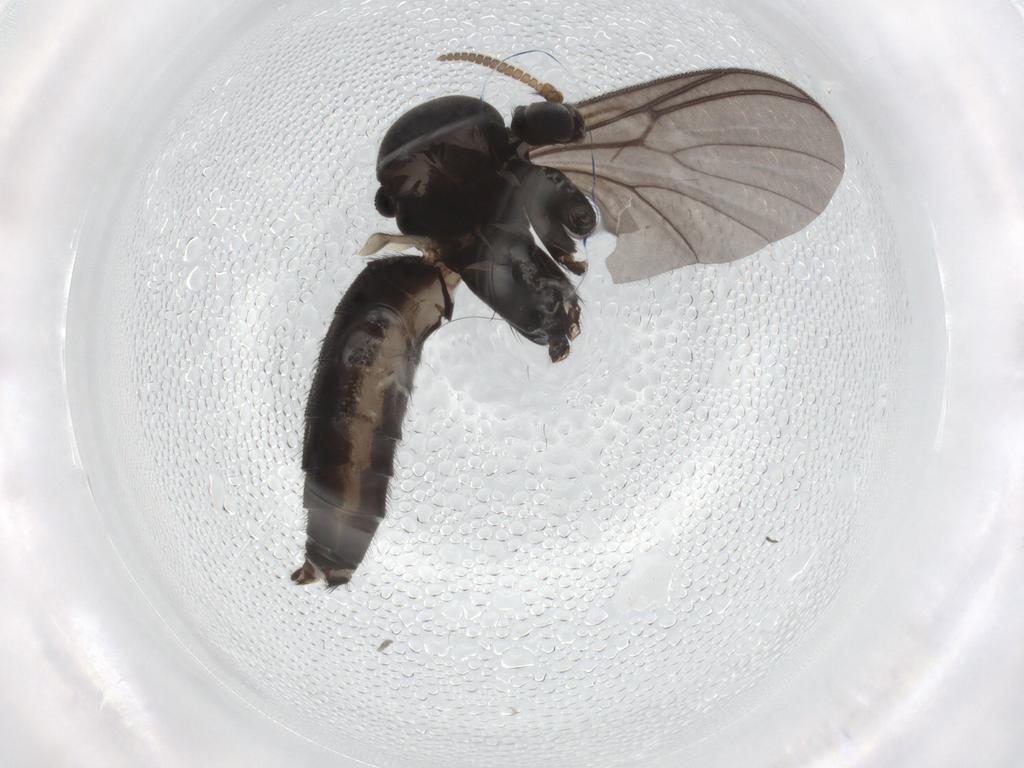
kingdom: Animalia
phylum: Arthropoda
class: Insecta
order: Diptera
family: Mycetophilidae
